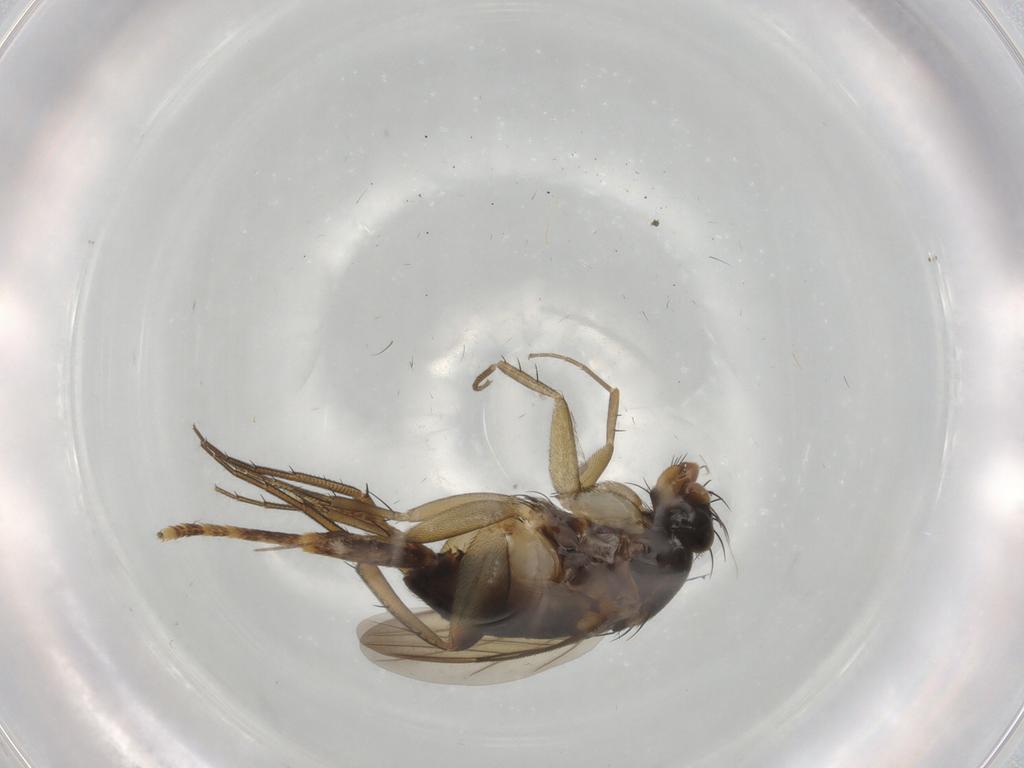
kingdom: Animalia
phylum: Arthropoda
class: Insecta
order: Diptera
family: Phoridae
